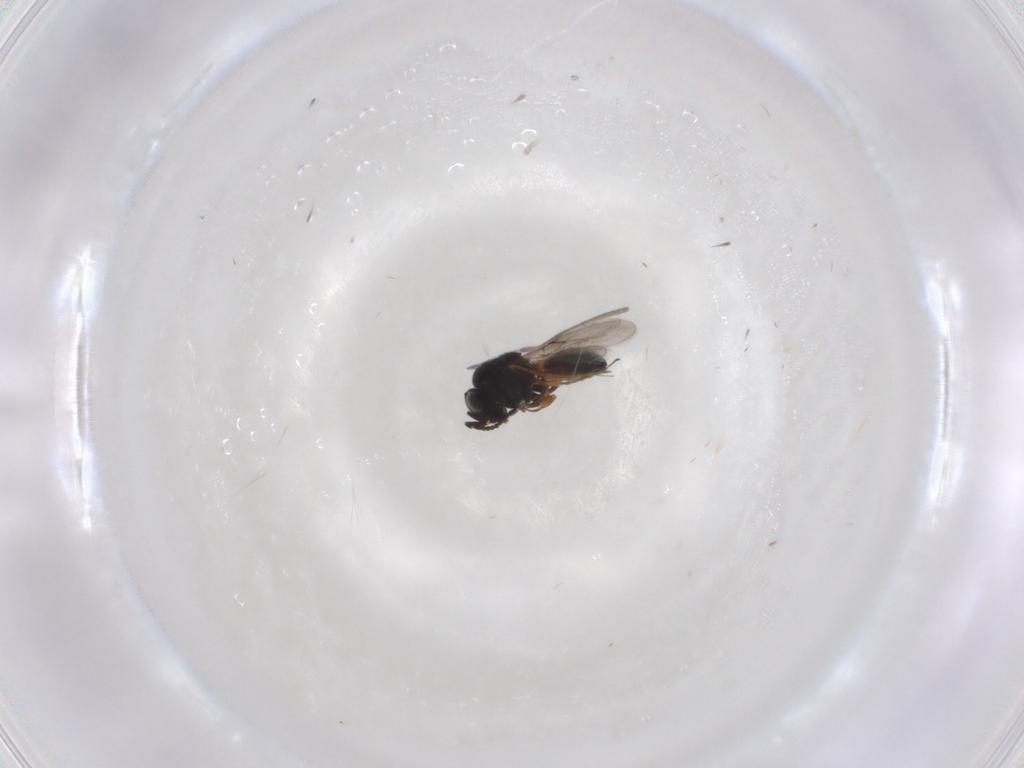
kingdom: Animalia
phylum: Arthropoda
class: Insecta
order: Hymenoptera
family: Scelionidae
